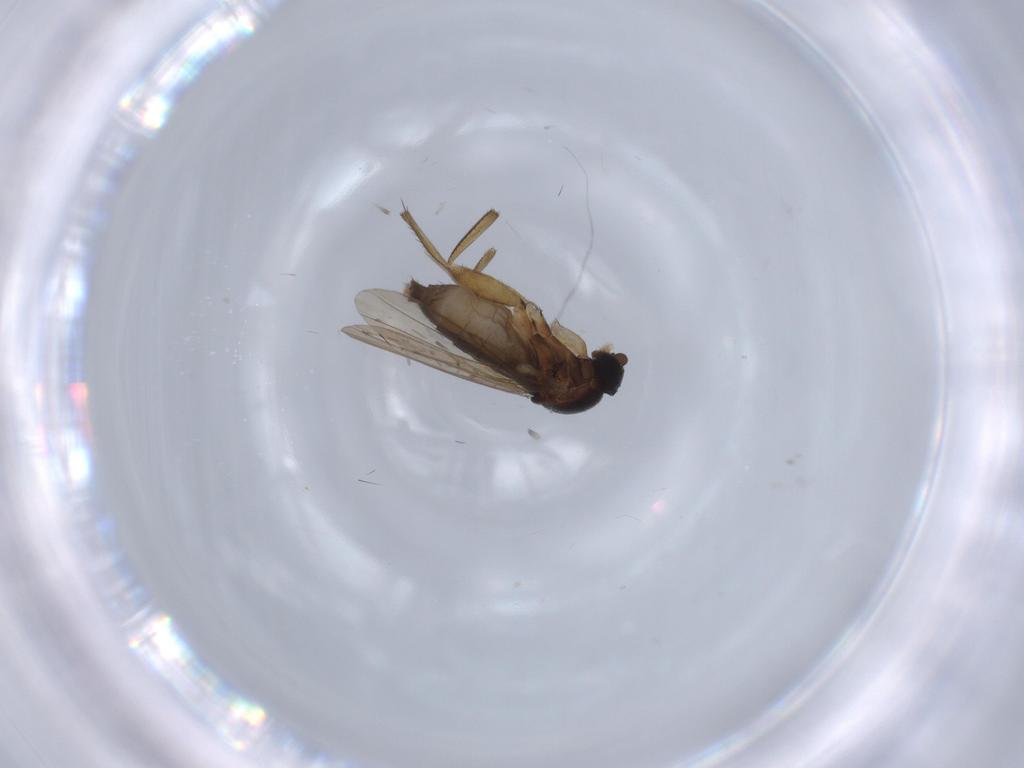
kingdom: Animalia
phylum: Arthropoda
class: Insecta
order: Diptera
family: Phoridae
